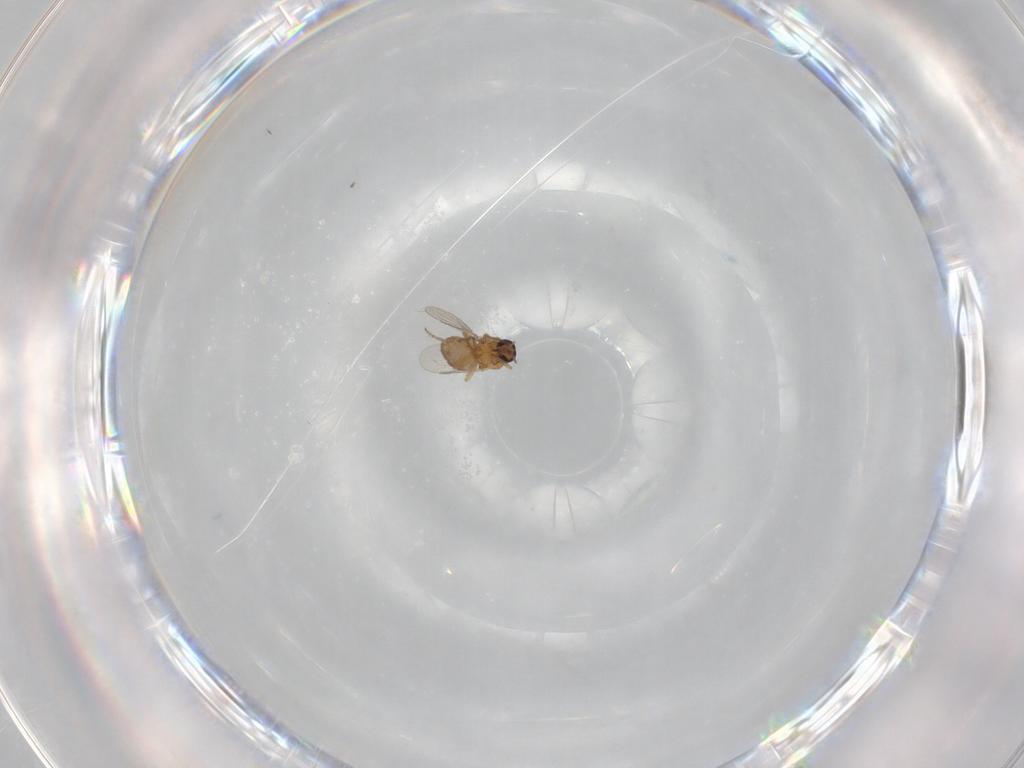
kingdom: Animalia
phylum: Arthropoda
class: Insecta
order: Diptera
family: Ceratopogonidae
